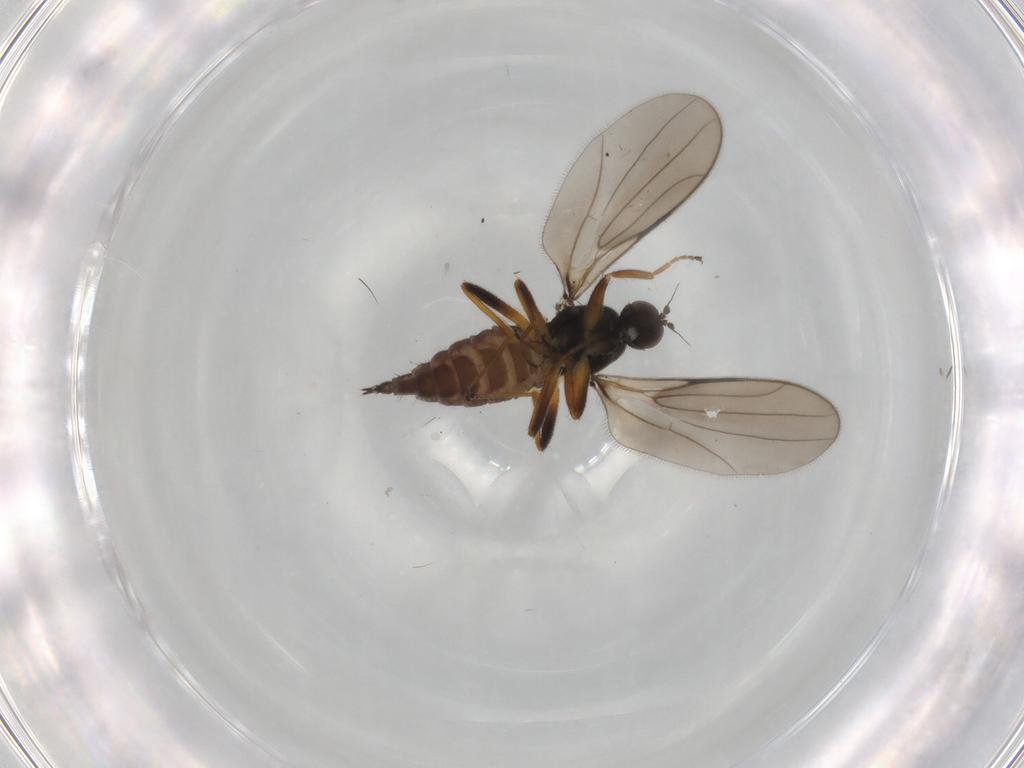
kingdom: Animalia
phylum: Arthropoda
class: Insecta
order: Diptera
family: Hybotidae
